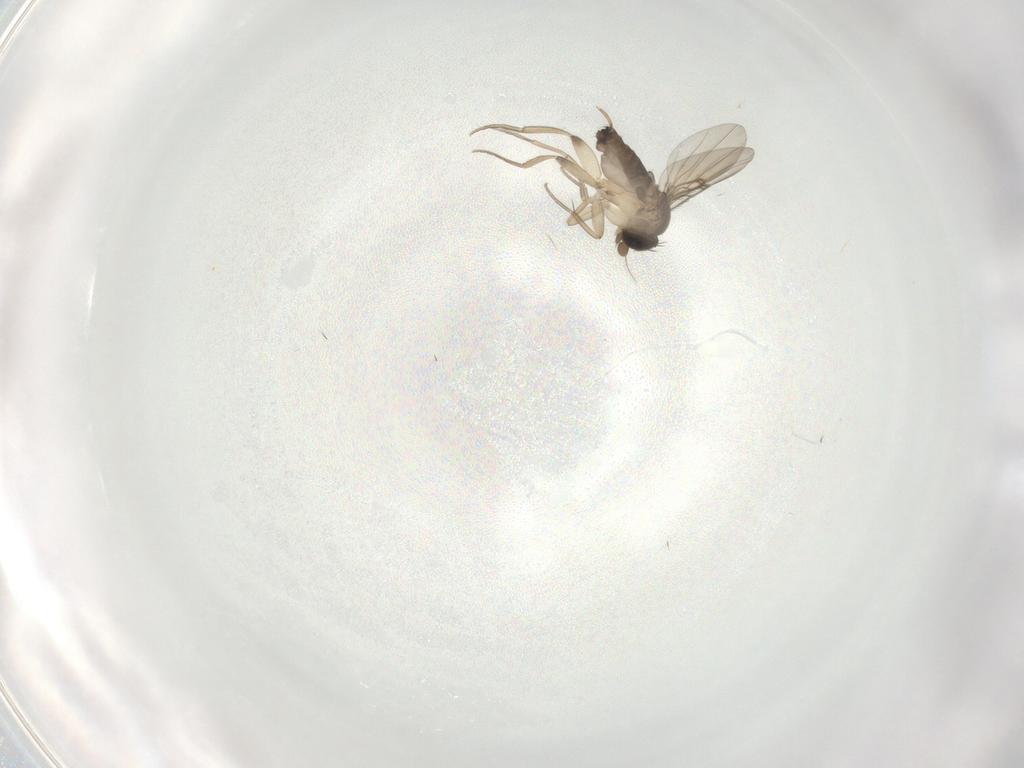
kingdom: Animalia
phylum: Arthropoda
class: Insecta
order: Diptera
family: Phoridae
